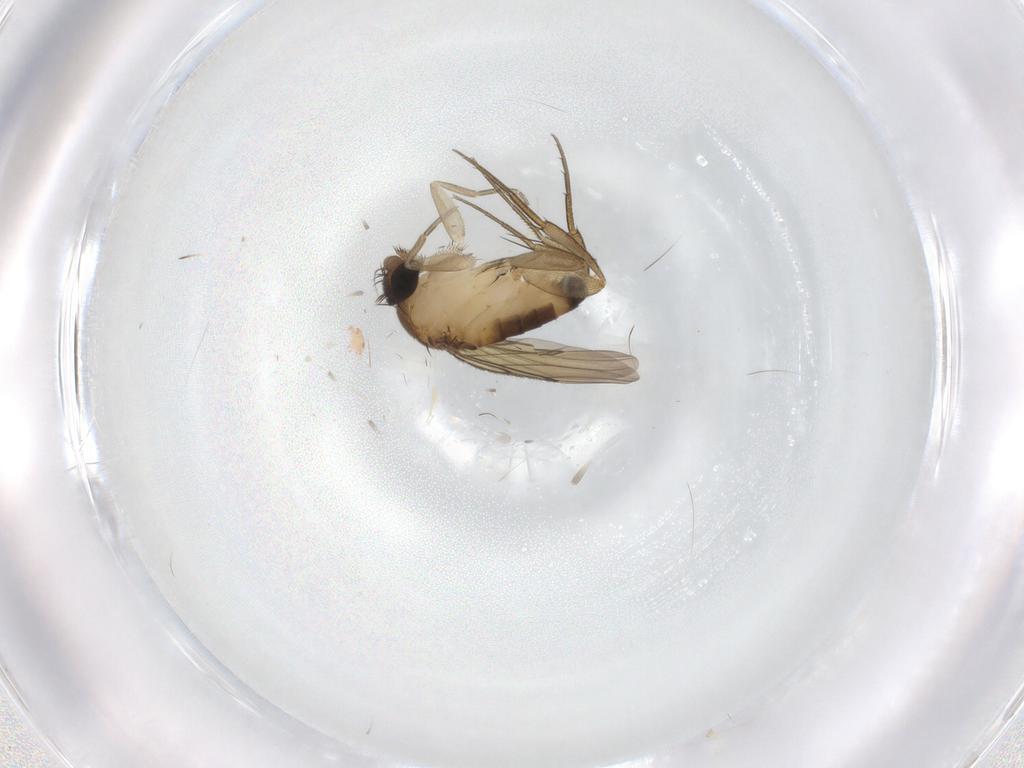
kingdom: Animalia
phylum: Arthropoda
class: Insecta
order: Diptera
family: Phoridae
